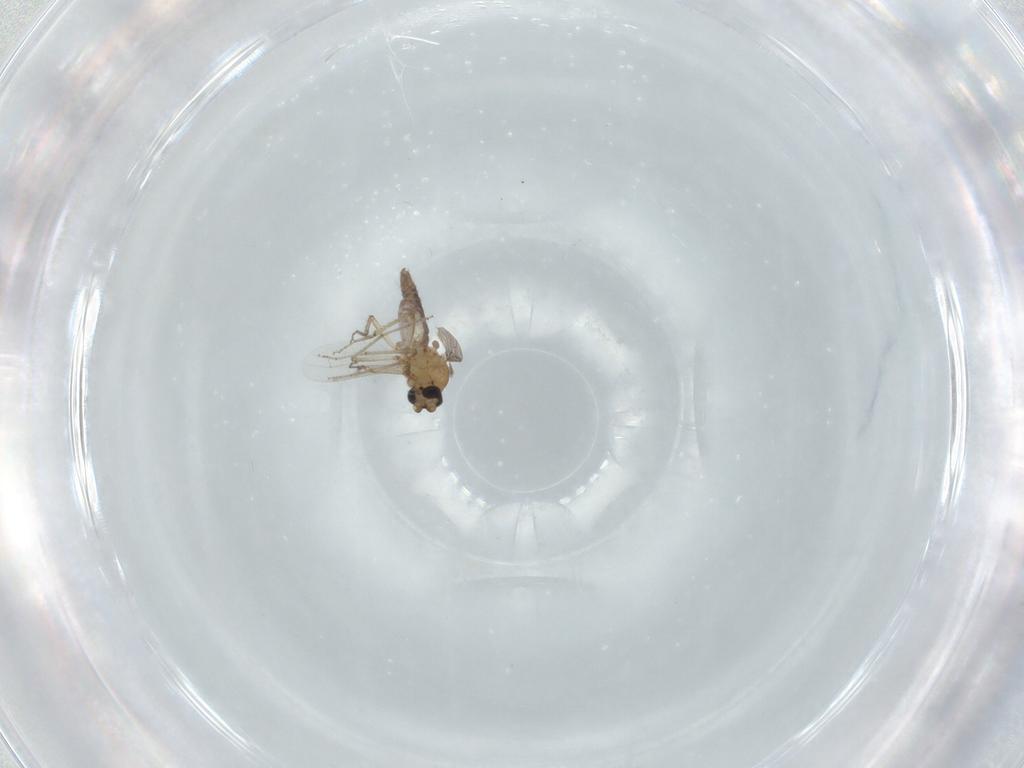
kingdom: Animalia
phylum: Arthropoda
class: Insecta
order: Diptera
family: Ceratopogonidae
